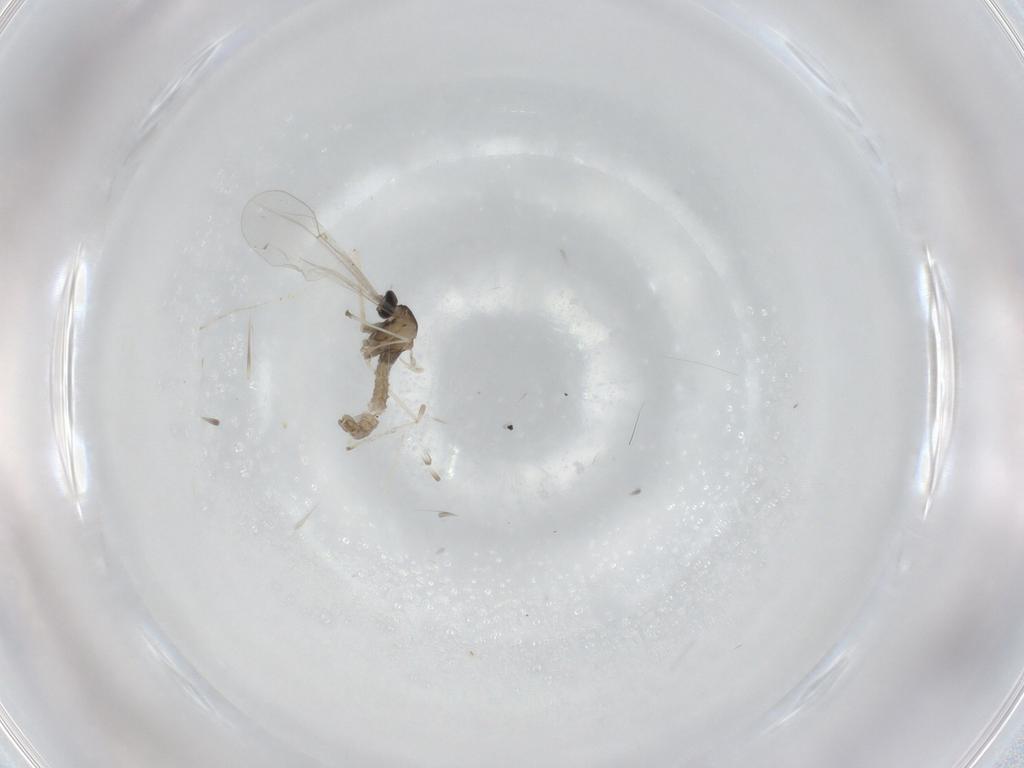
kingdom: Animalia
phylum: Arthropoda
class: Insecta
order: Diptera
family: Cecidomyiidae
